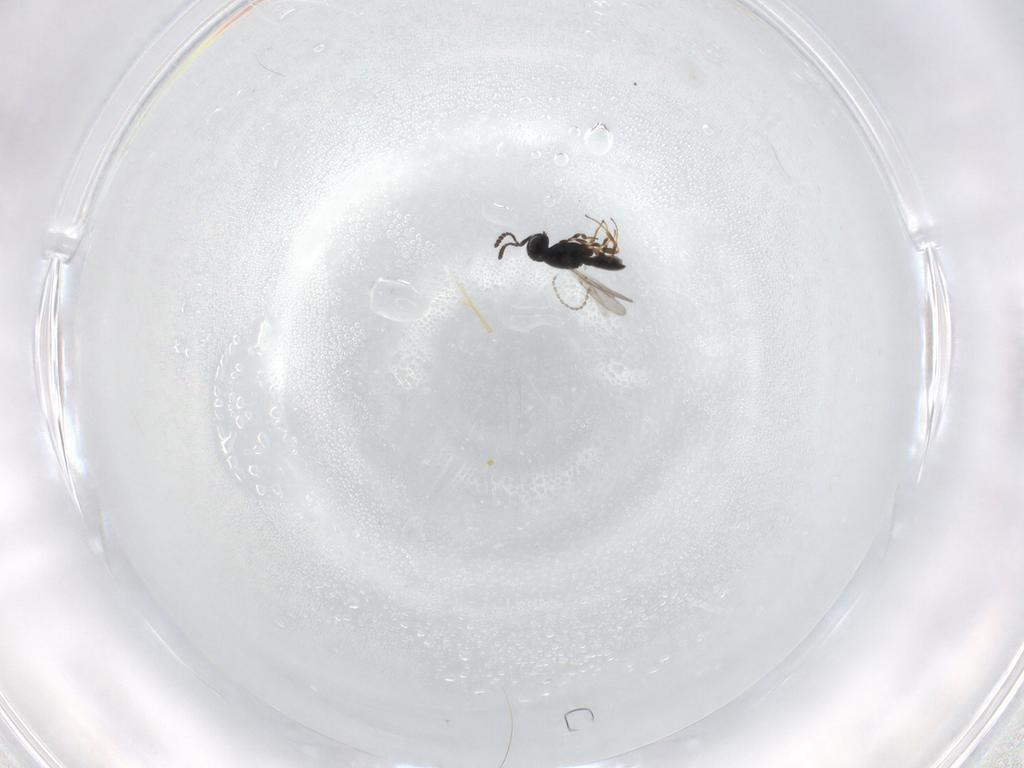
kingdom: Animalia
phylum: Arthropoda
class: Insecta
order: Hymenoptera
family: Scelionidae
